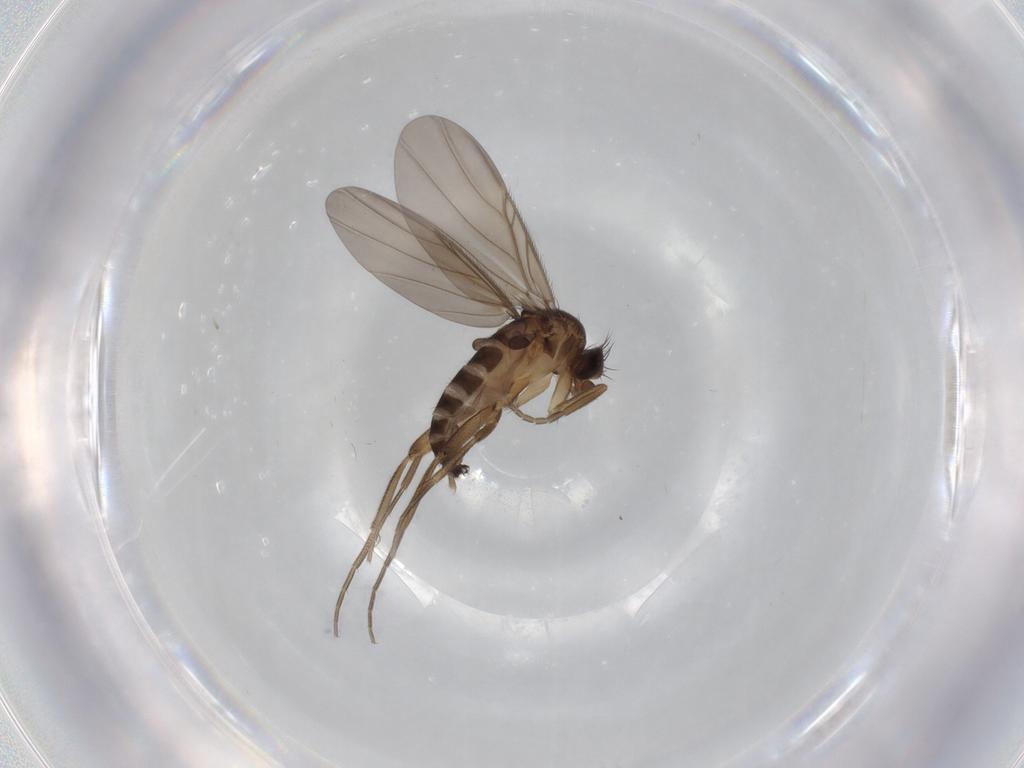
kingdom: Animalia
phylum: Arthropoda
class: Insecta
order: Diptera
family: Phoridae
